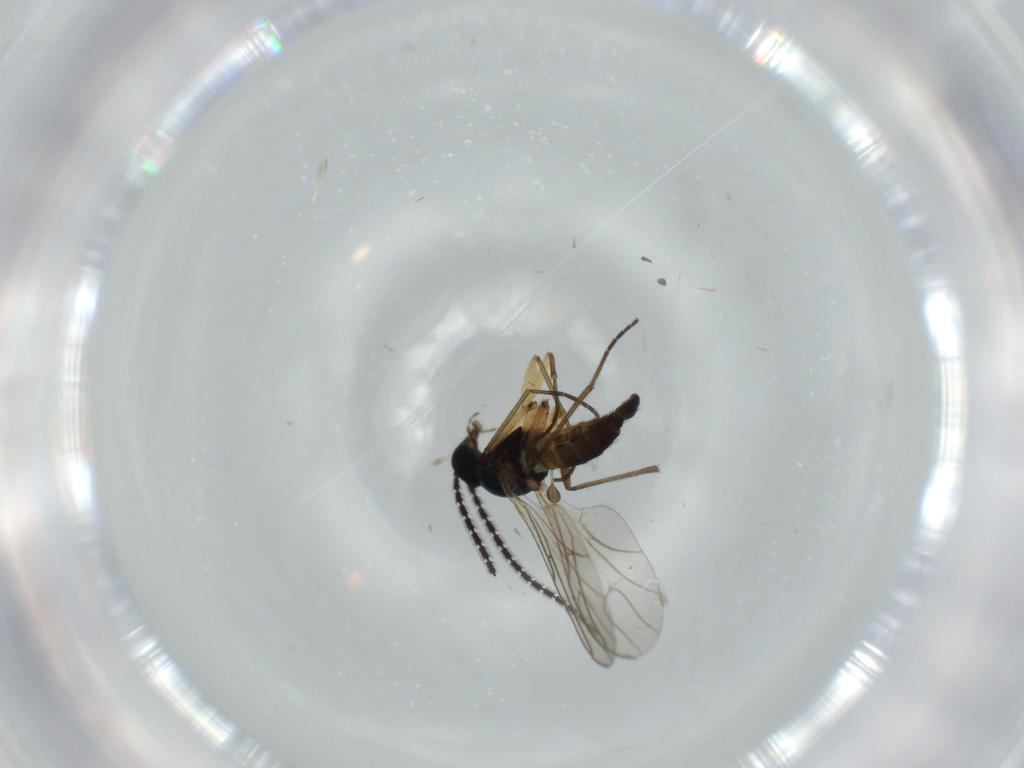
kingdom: Animalia
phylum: Arthropoda
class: Insecta
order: Diptera
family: Sciaridae
